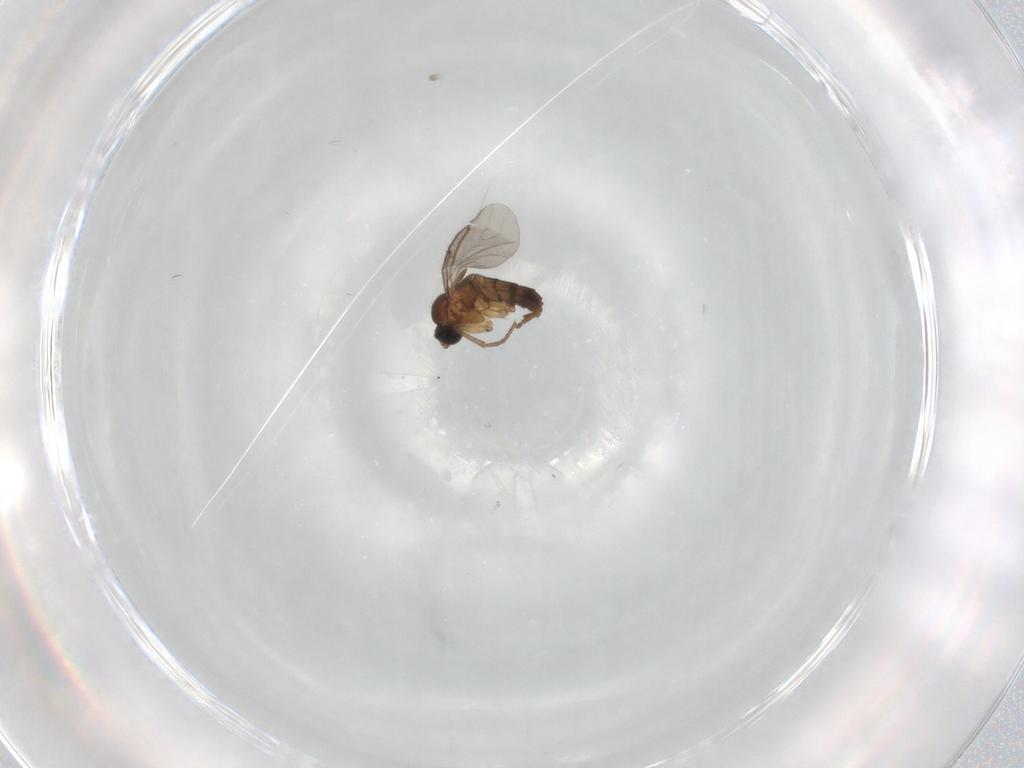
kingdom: Animalia
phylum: Arthropoda
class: Insecta
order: Diptera
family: Sciaridae
